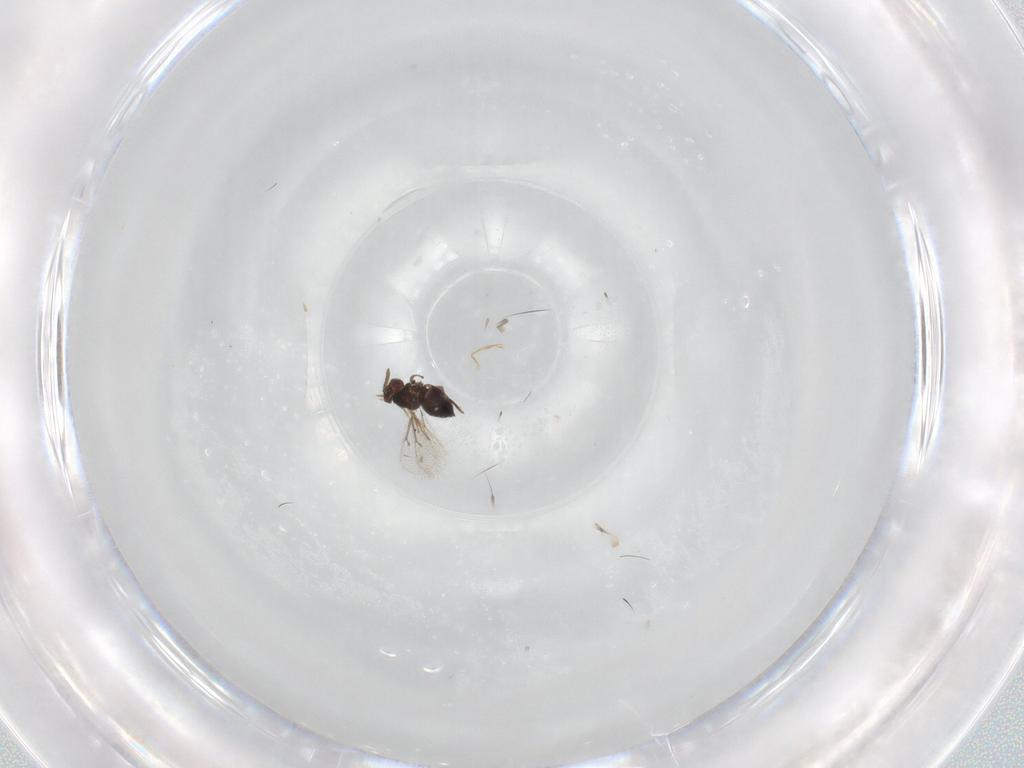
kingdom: Animalia
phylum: Arthropoda
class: Insecta
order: Hymenoptera
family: Eulophidae
